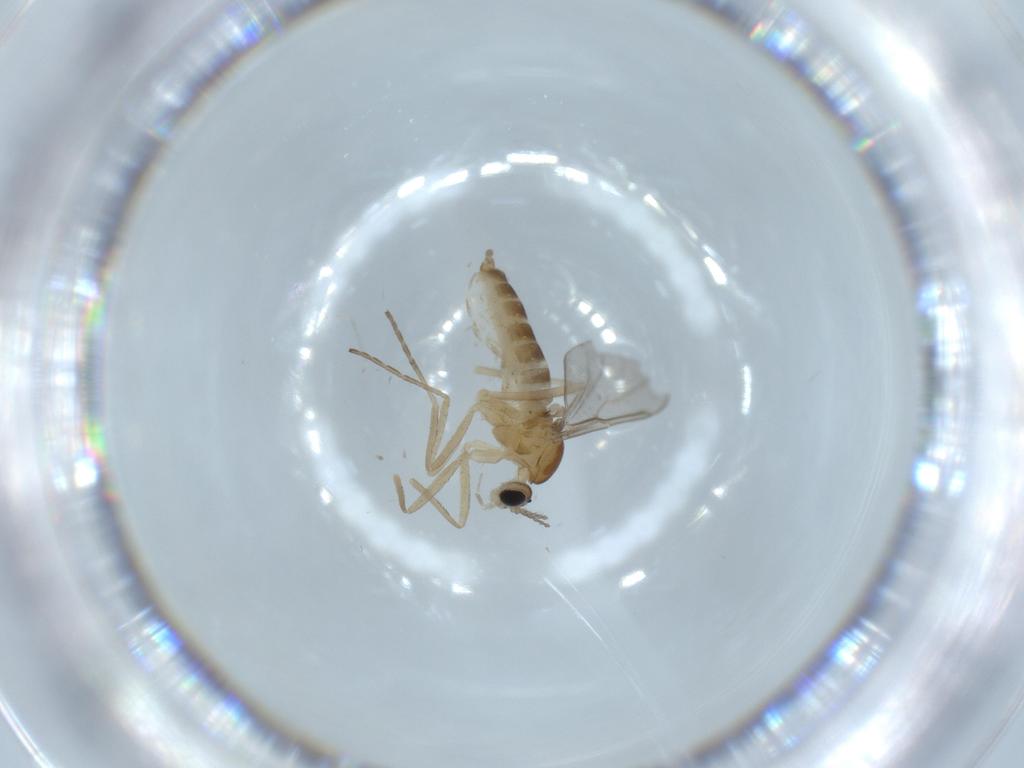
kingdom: Animalia
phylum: Arthropoda
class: Insecta
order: Diptera
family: Cecidomyiidae
